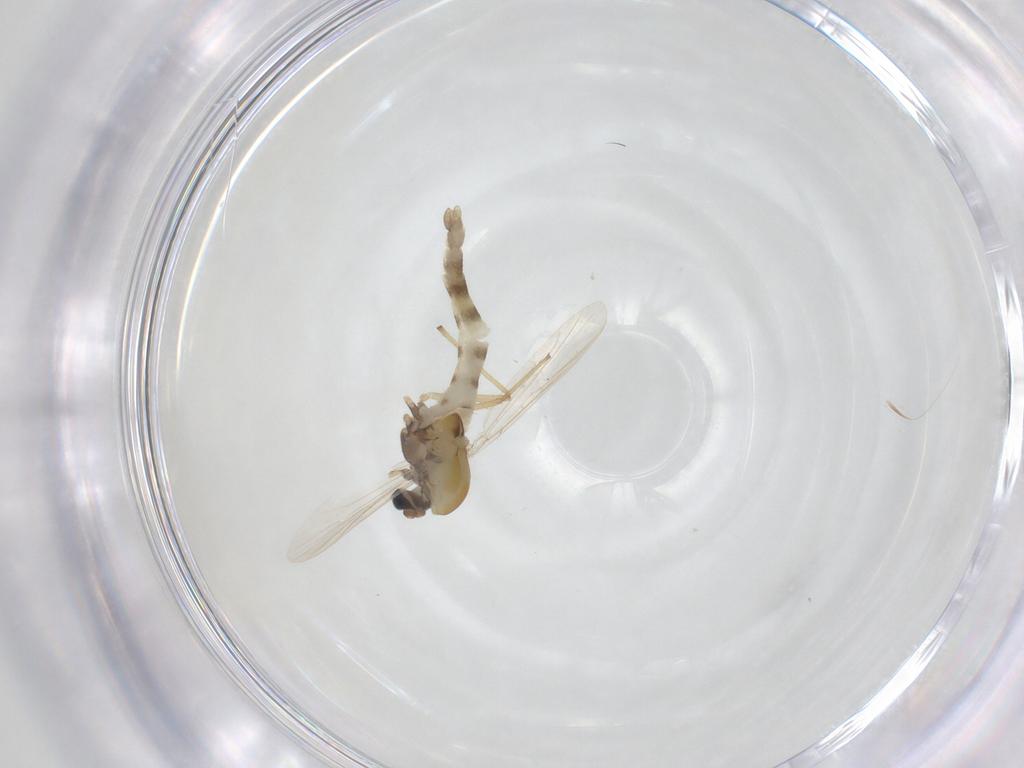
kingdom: Animalia
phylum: Arthropoda
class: Insecta
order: Diptera
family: Chironomidae
